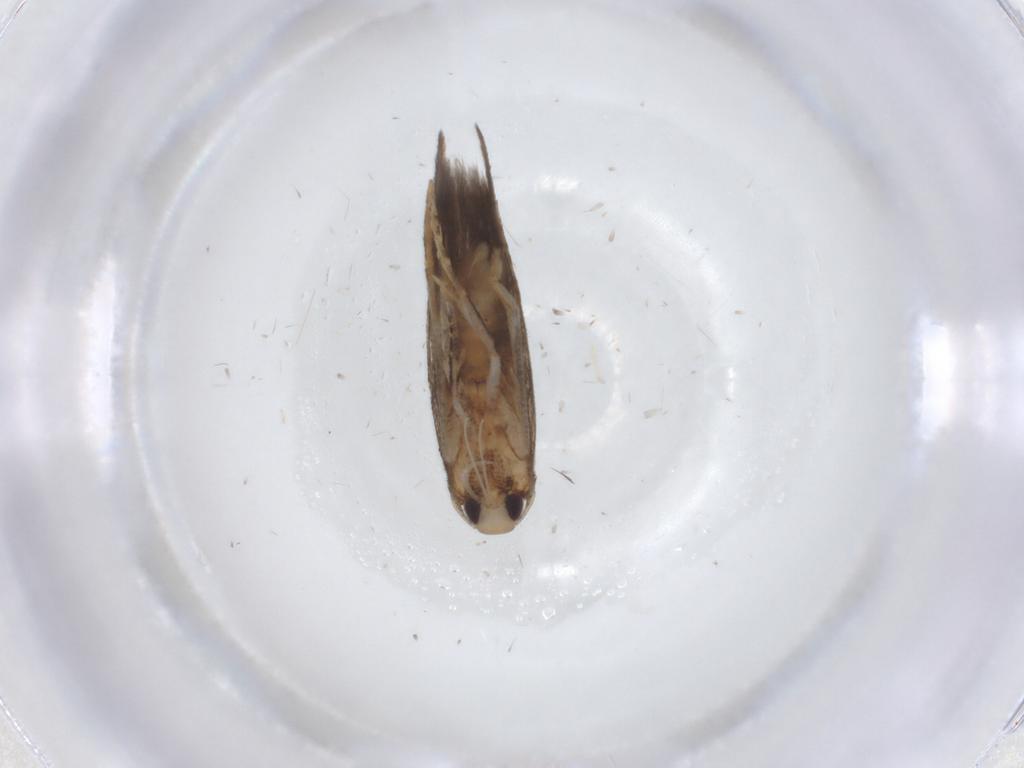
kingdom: Animalia
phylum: Arthropoda
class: Insecta
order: Lepidoptera
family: Cosmopterigidae
